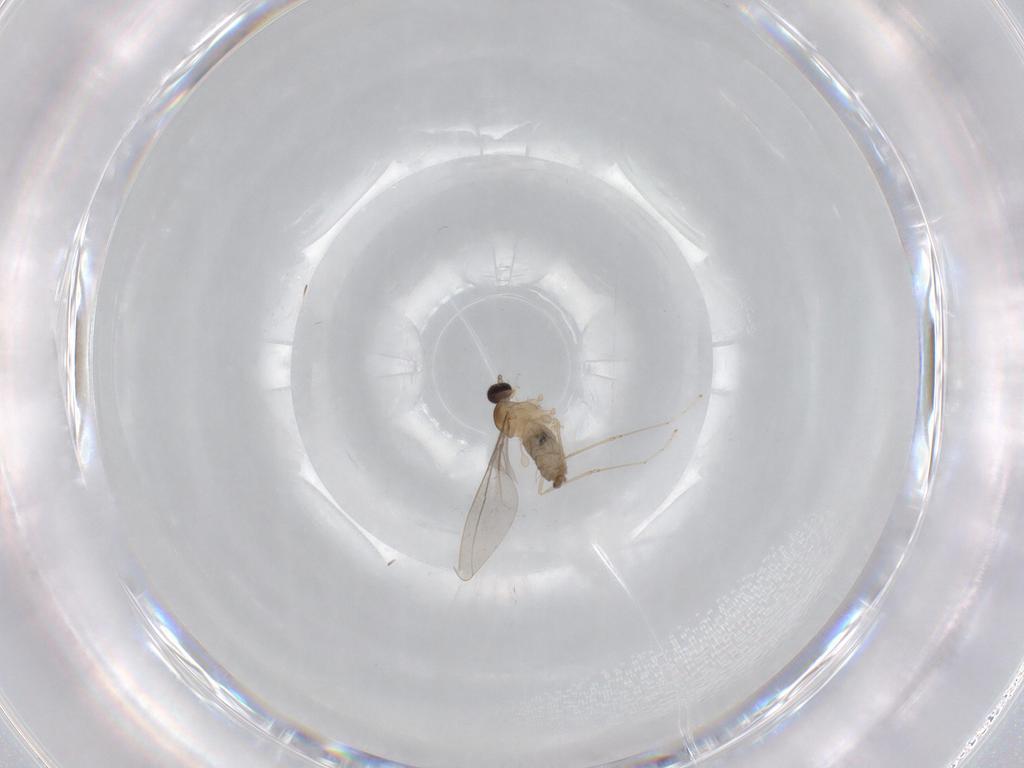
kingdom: Animalia
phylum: Arthropoda
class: Insecta
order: Diptera
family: Cecidomyiidae
